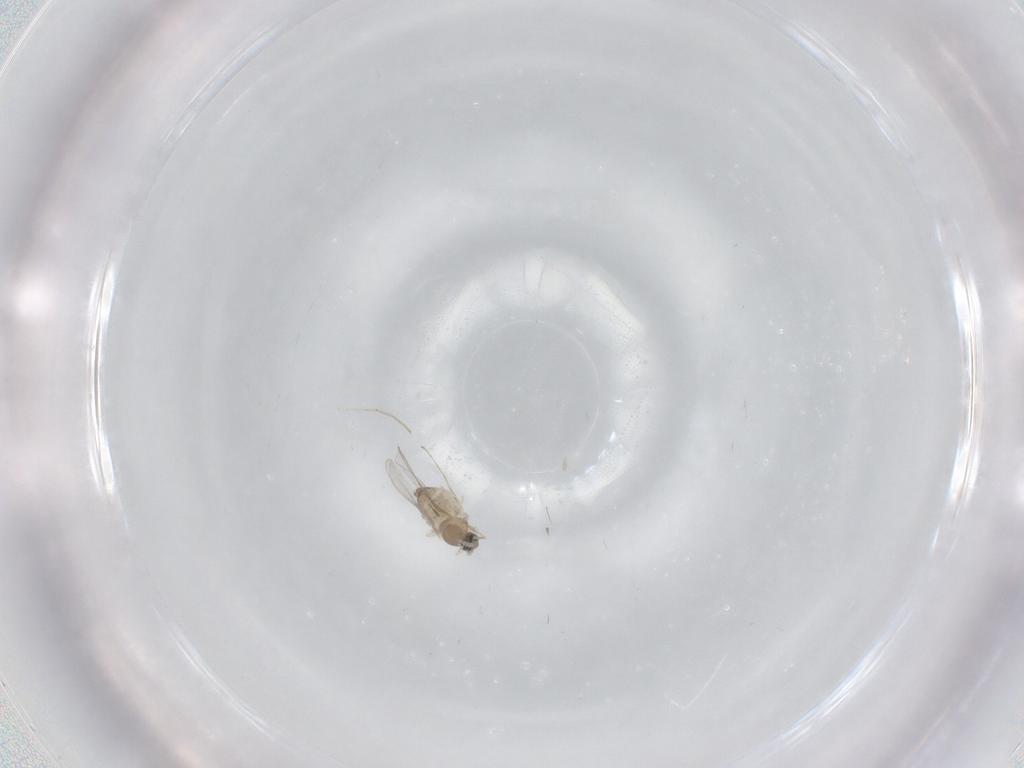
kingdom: Animalia
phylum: Arthropoda
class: Insecta
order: Diptera
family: Cecidomyiidae
